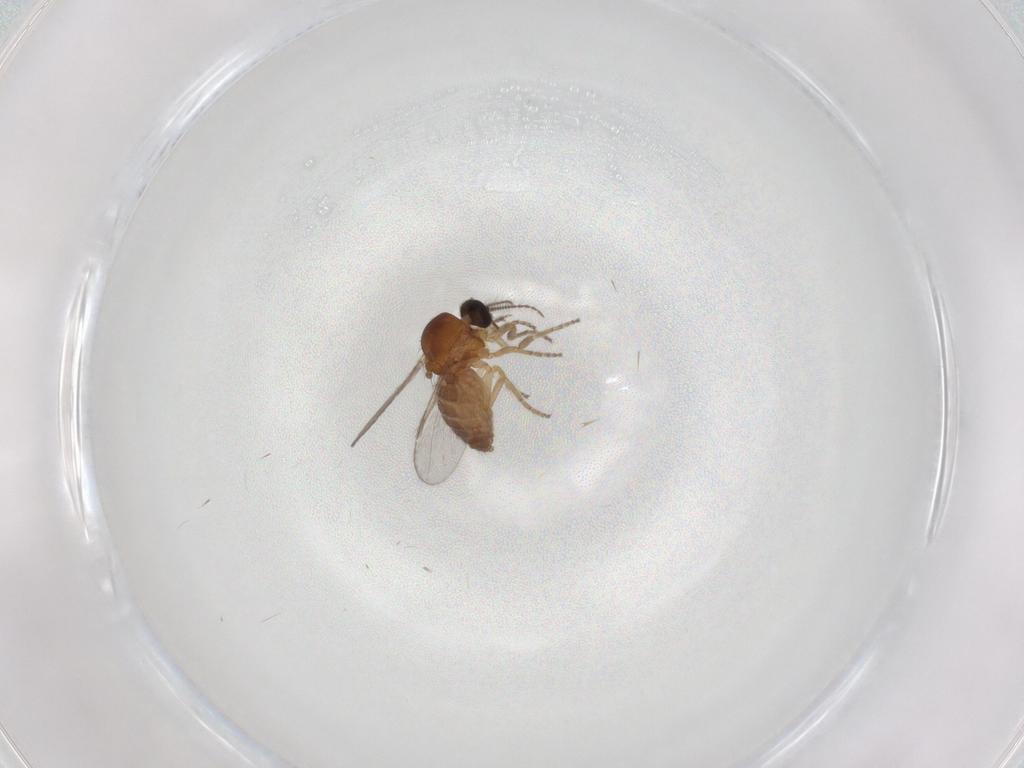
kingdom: Animalia
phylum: Arthropoda
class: Insecta
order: Diptera
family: Ceratopogonidae
